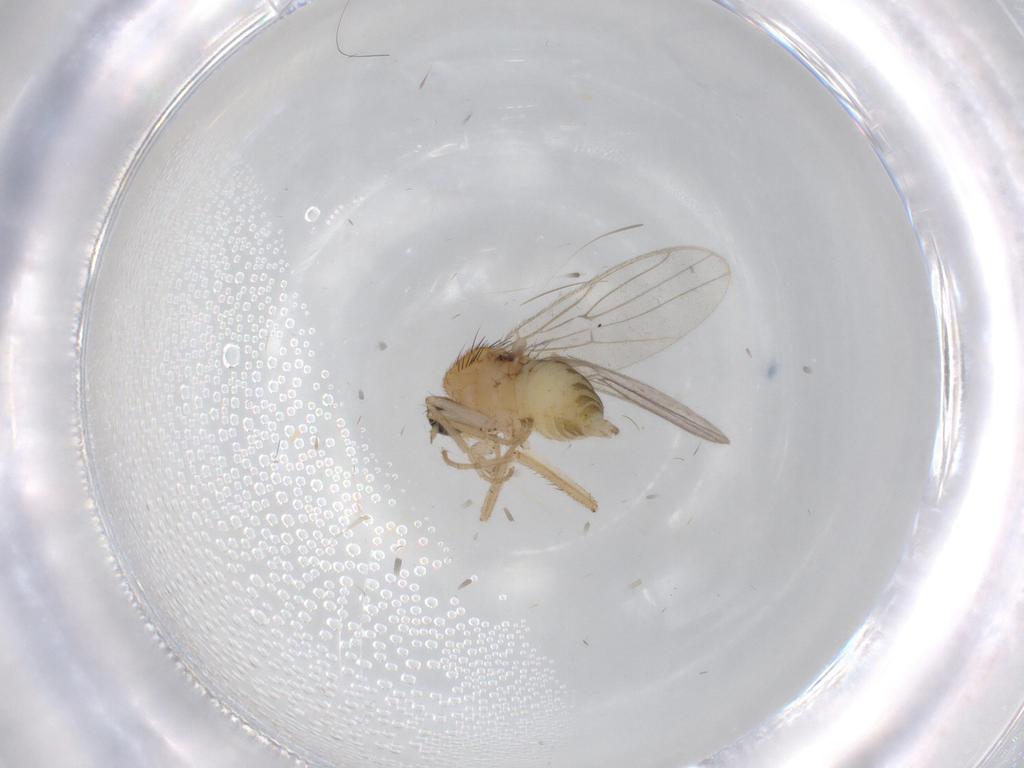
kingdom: Animalia
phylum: Arthropoda
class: Insecta
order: Diptera
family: Hybotidae
